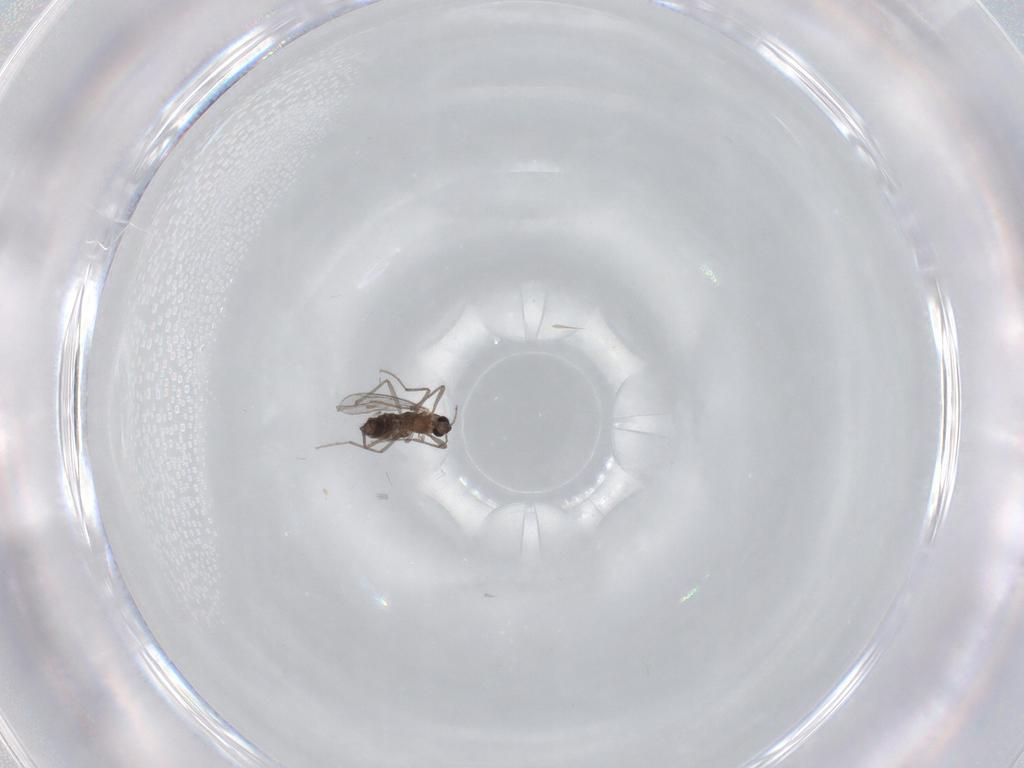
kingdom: Animalia
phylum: Arthropoda
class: Insecta
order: Diptera
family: Chironomidae
